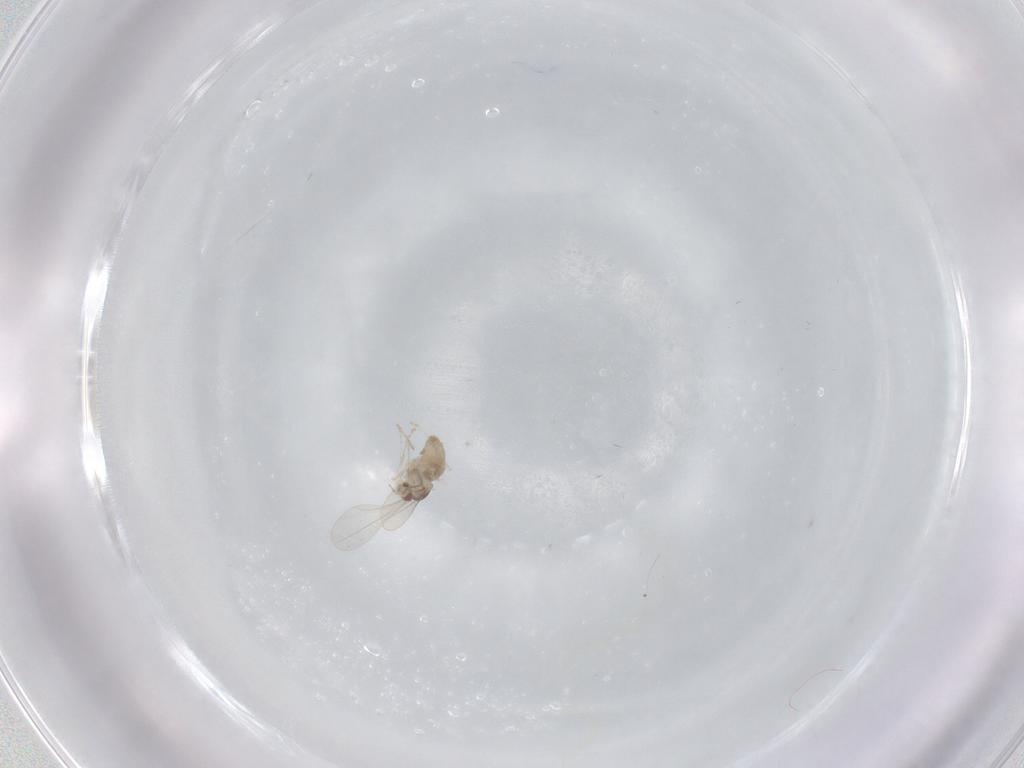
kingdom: Animalia
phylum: Arthropoda
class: Insecta
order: Diptera
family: Cecidomyiidae
